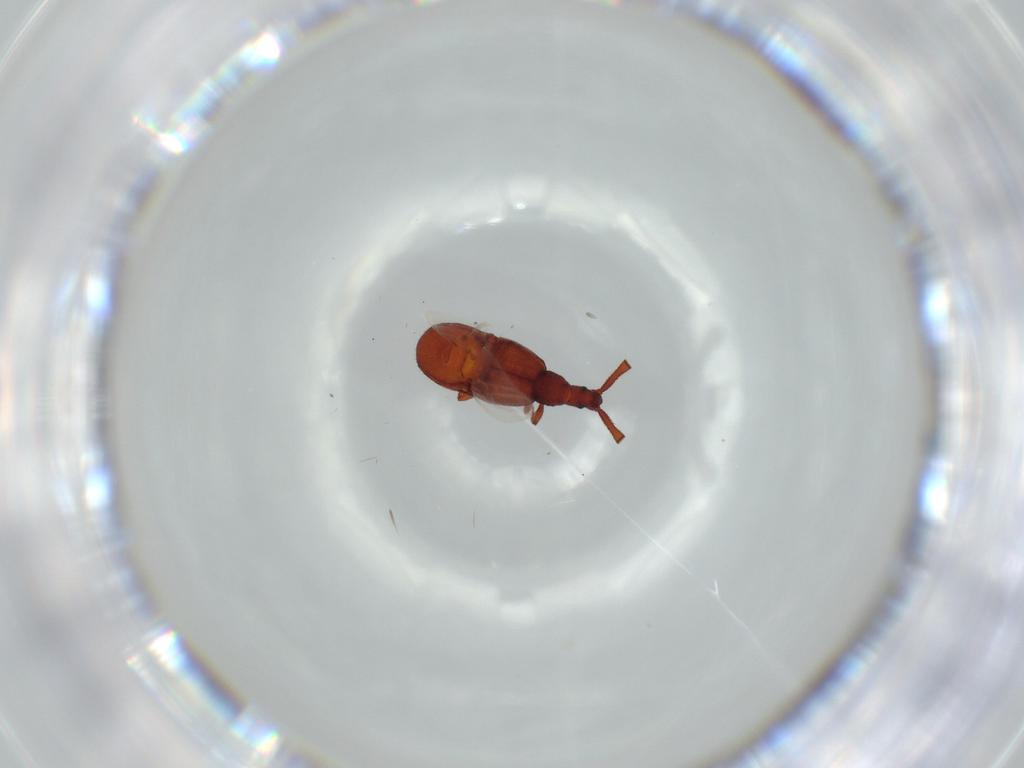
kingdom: Animalia
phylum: Arthropoda
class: Insecta
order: Coleoptera
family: Staphylinidae
